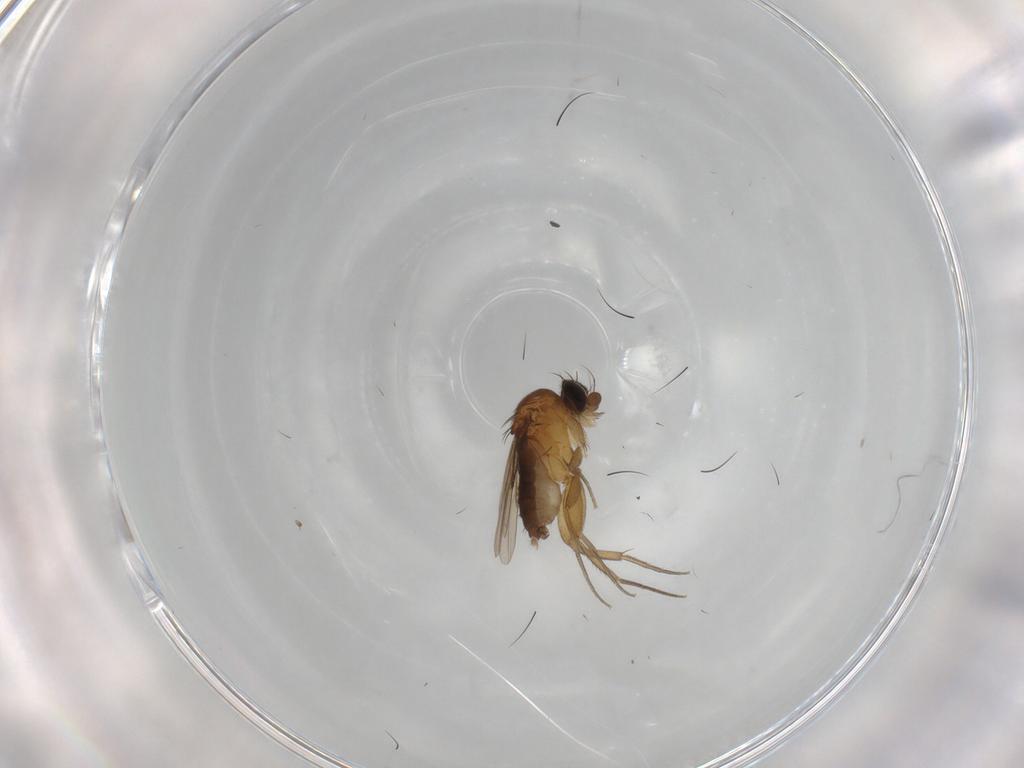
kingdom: Animalia
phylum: Arthropoda
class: Insecta
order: Diptera
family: Phoridae
